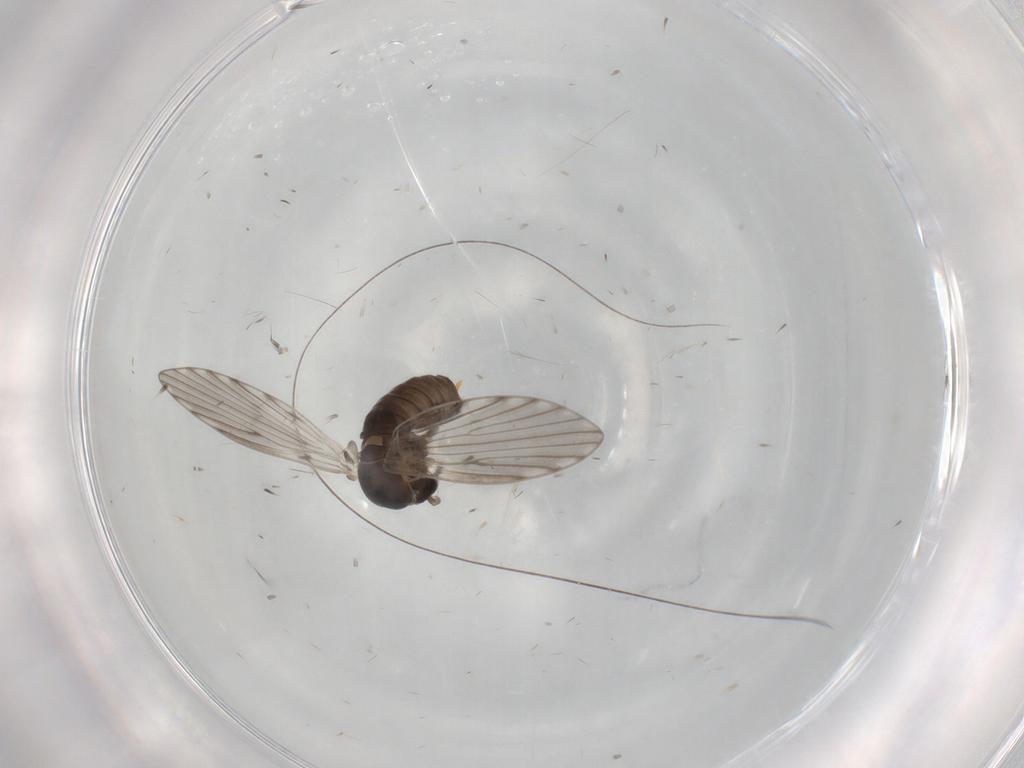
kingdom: Animalia
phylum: Arthropoda
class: Insecta
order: Diptera
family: Psychodidae
